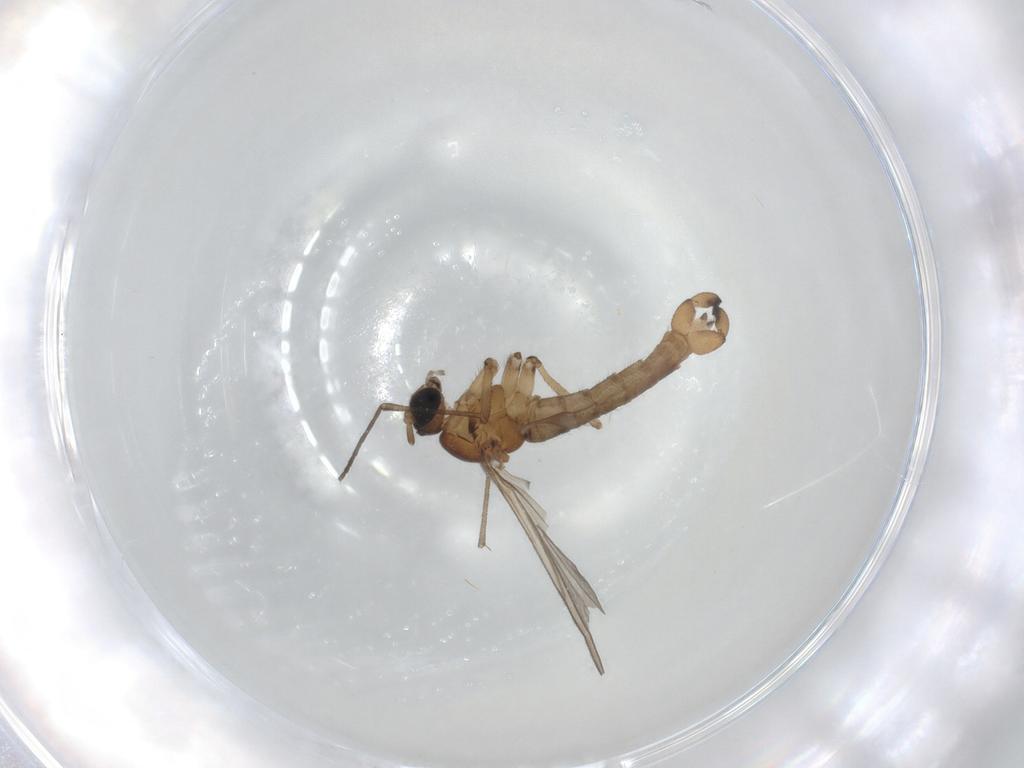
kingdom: Animalia
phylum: Arthropoda
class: Insecta
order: Diptera
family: Sciaridae
